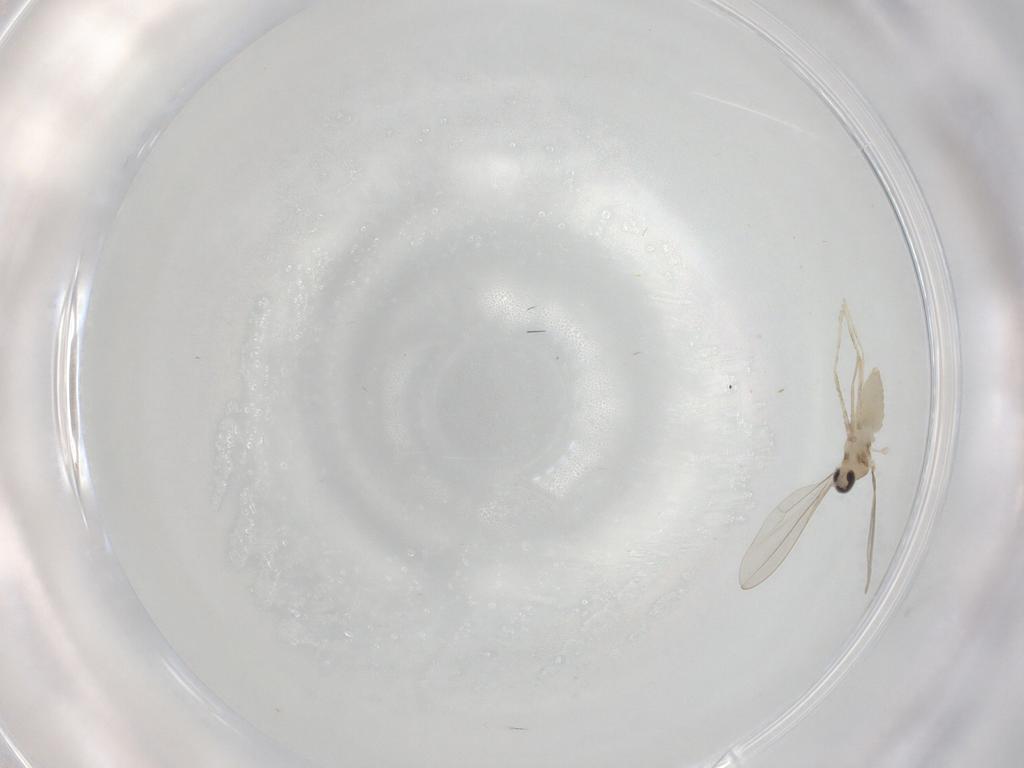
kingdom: Animalia
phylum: Arthropoda
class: Insecta
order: Diptera
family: Cecidomyiidae
